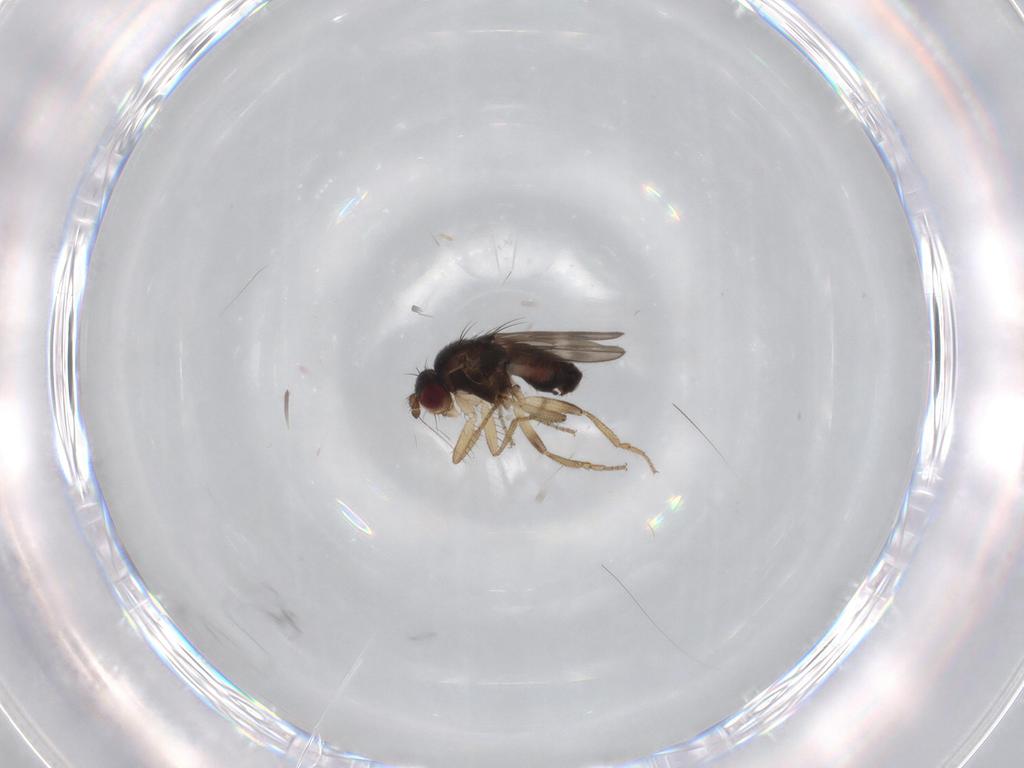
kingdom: Animalia
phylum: Arthropoda
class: Insecta
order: Diptera
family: Sphaeroceridae
